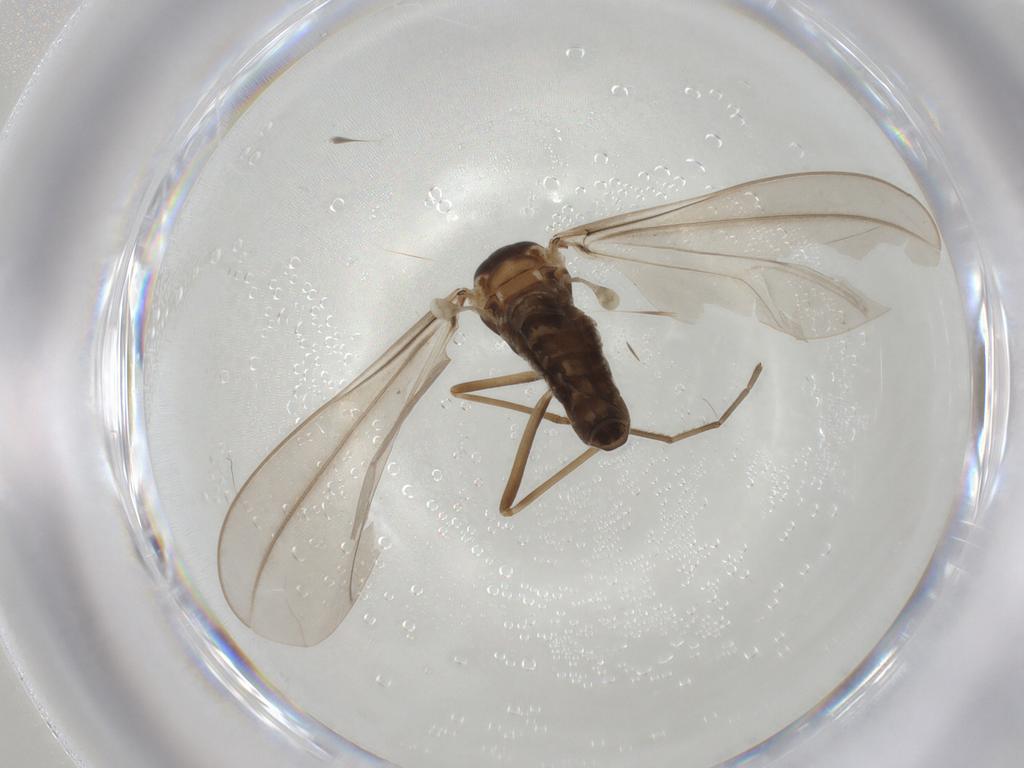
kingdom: Animalia
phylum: Arthropoda
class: Insecta
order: Diptera
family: Cecidomyiidae
